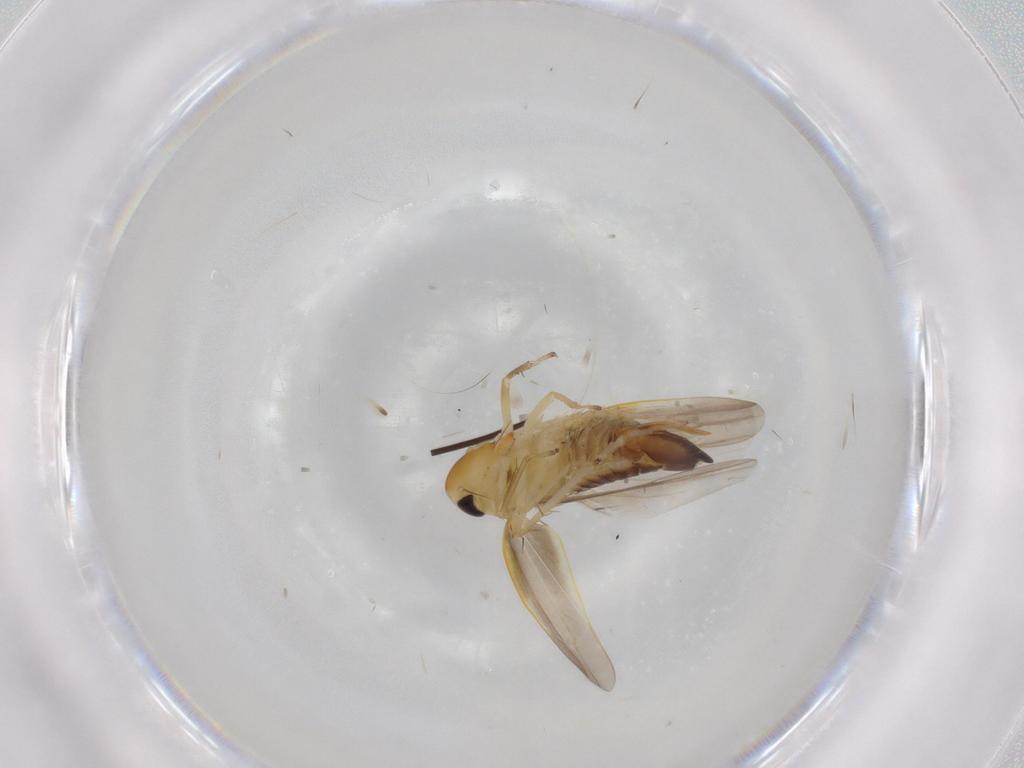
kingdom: Animalia
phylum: Arthropoda
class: Insecta
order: Hemiptera
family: Cicadellidae
